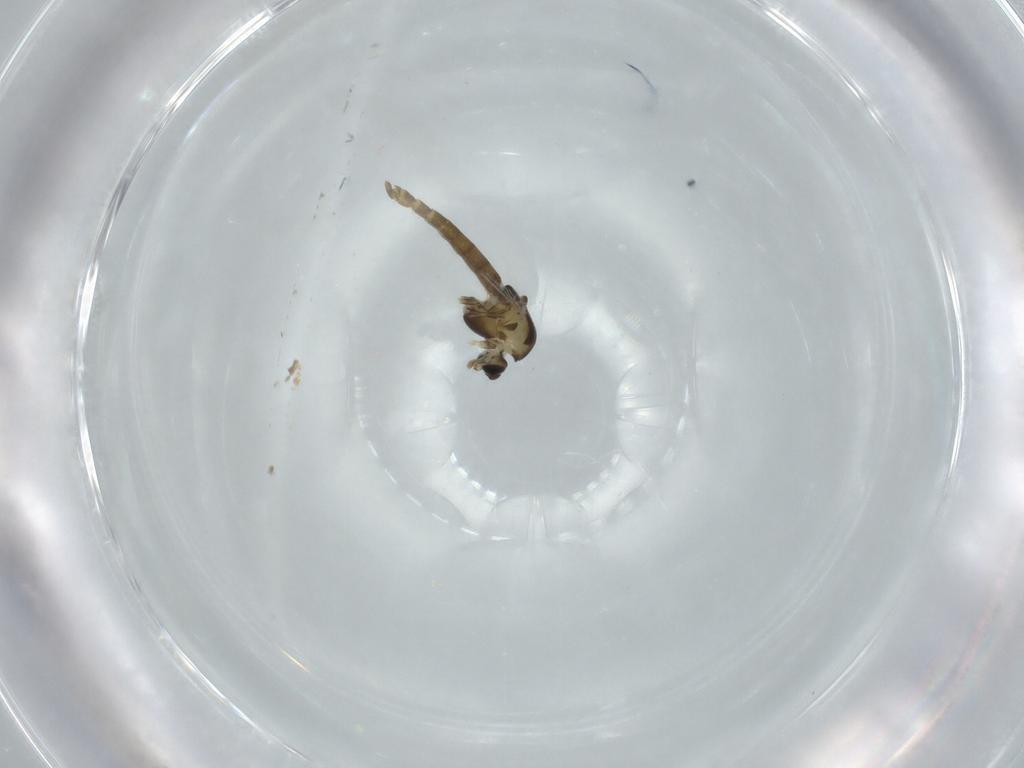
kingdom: Animalia
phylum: Arthropoda
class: Insecta
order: Diptera
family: Chironomidae
